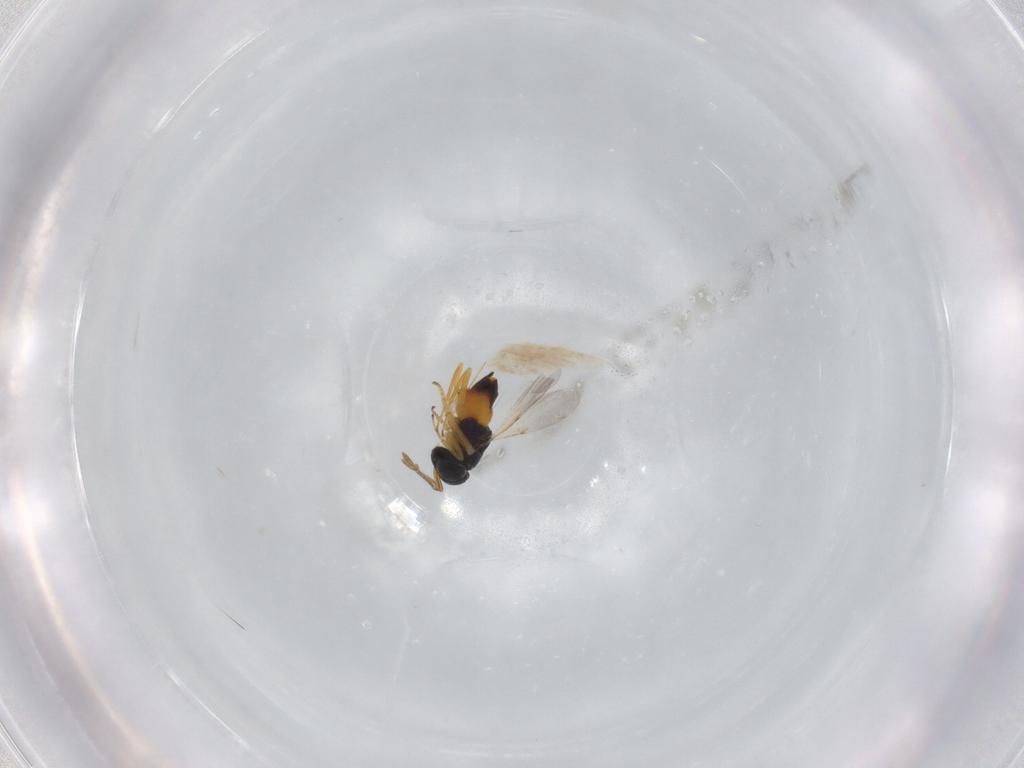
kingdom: Animalia
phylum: Arthropoda
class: Insecta
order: Hymenoptera
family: Encyrtidae
